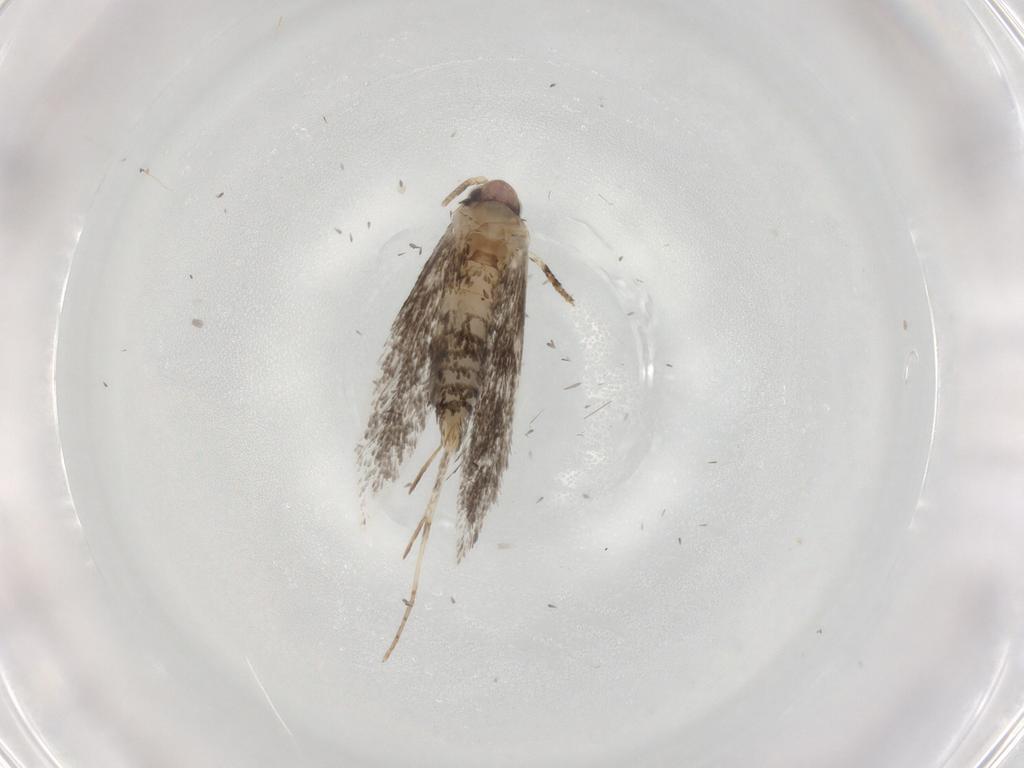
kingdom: Animalia
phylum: Arthropoda
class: Insecta
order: Lepidoptera
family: Tineidae
